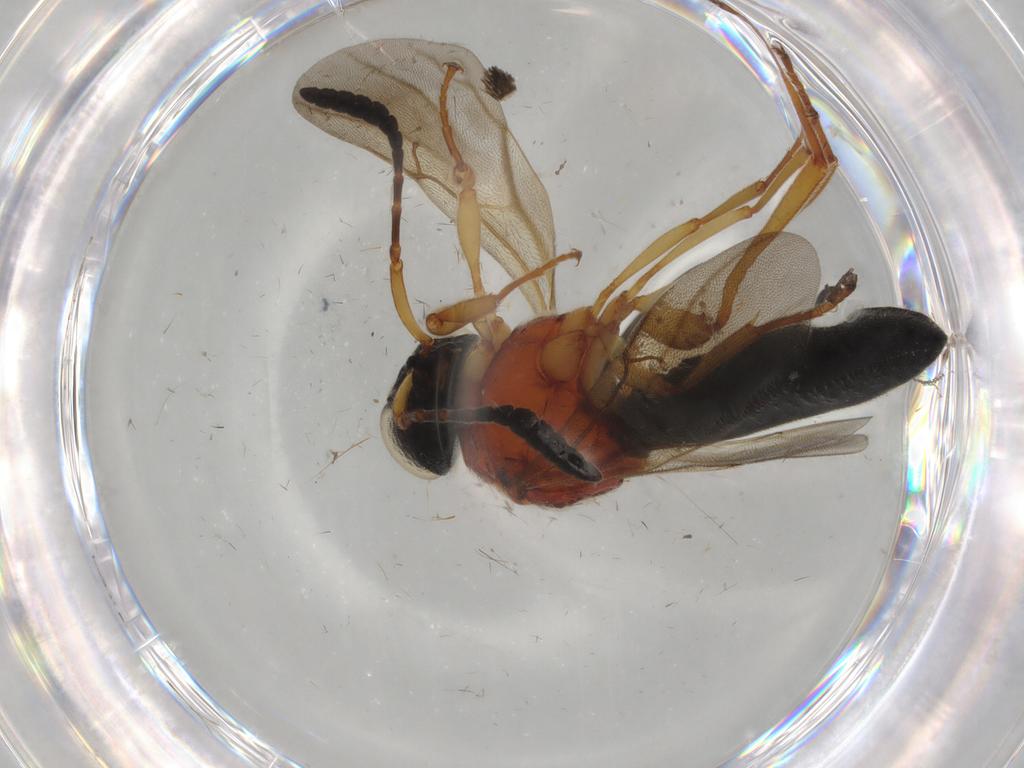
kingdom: Animalia
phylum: Arthropoda
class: Insecta
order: Hymenoptera
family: Scelionidae
